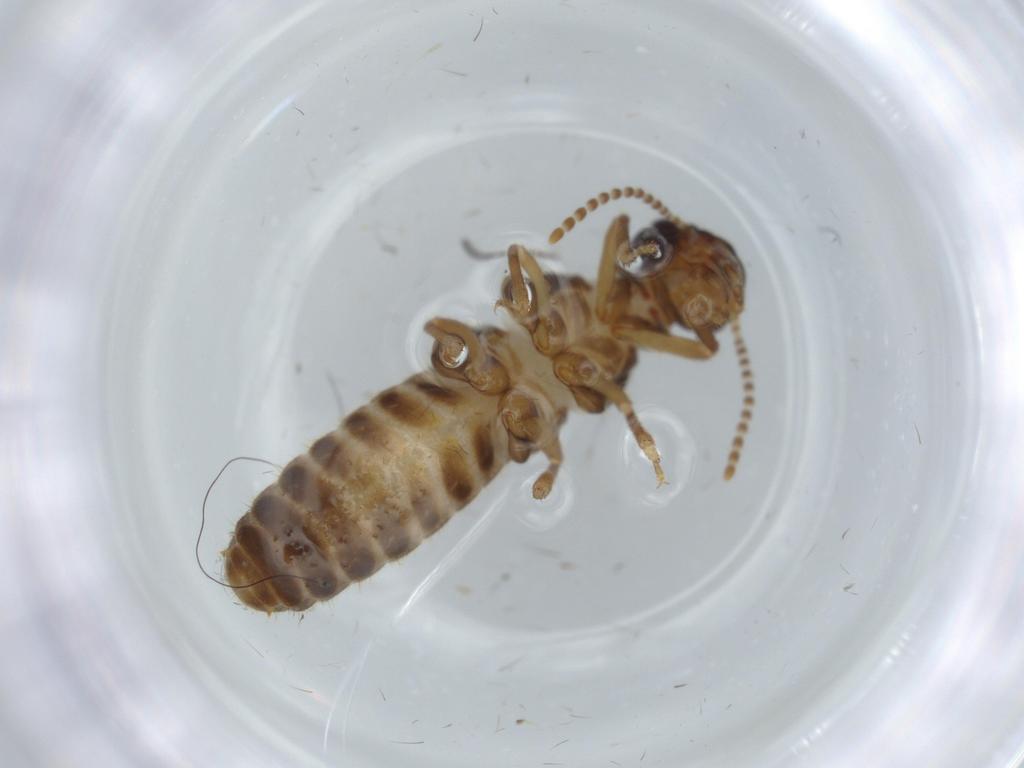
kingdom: Animalia
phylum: Arthropoda
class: Insecta
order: Blattodea
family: Termitidae
